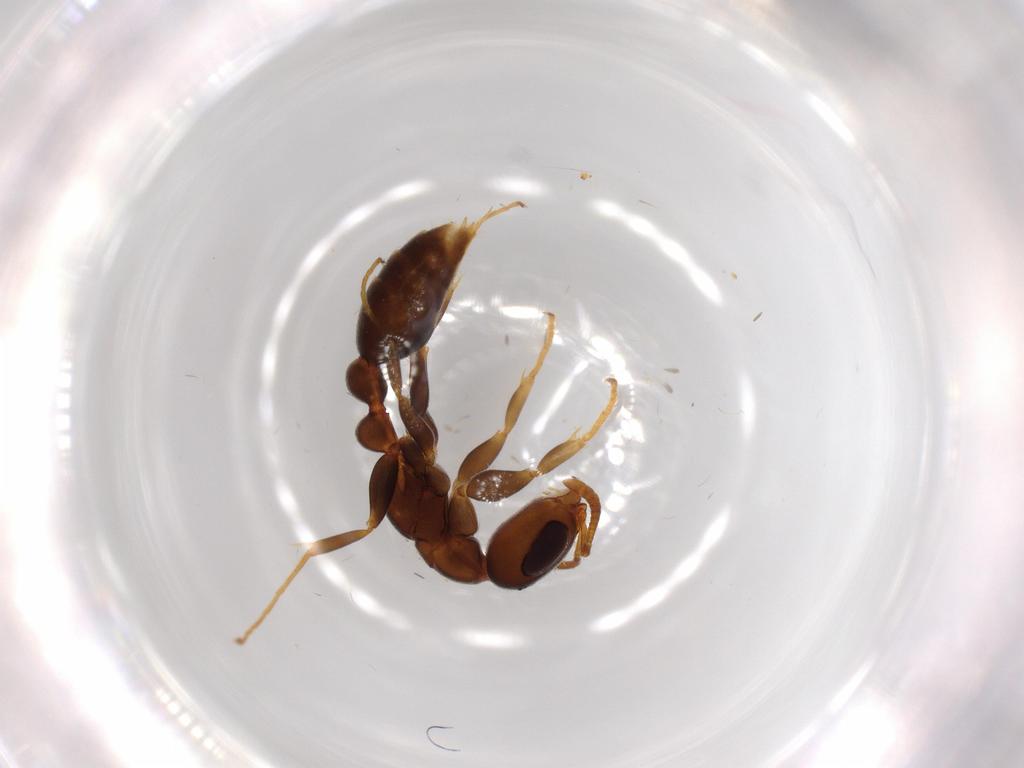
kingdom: Animalia
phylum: Arthropoda
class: Insecta
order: Hymenoptera
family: Formicidae
